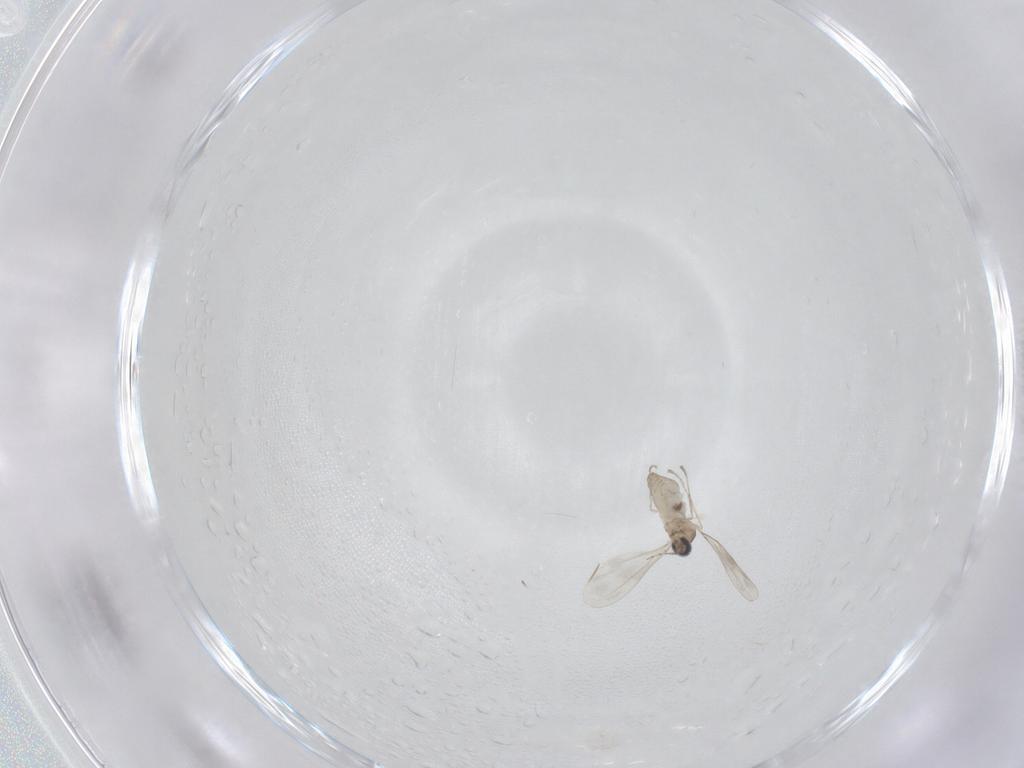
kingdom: Animalia
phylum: Arthropoda
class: Insecta
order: Diptera
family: Cecidomyiidae
